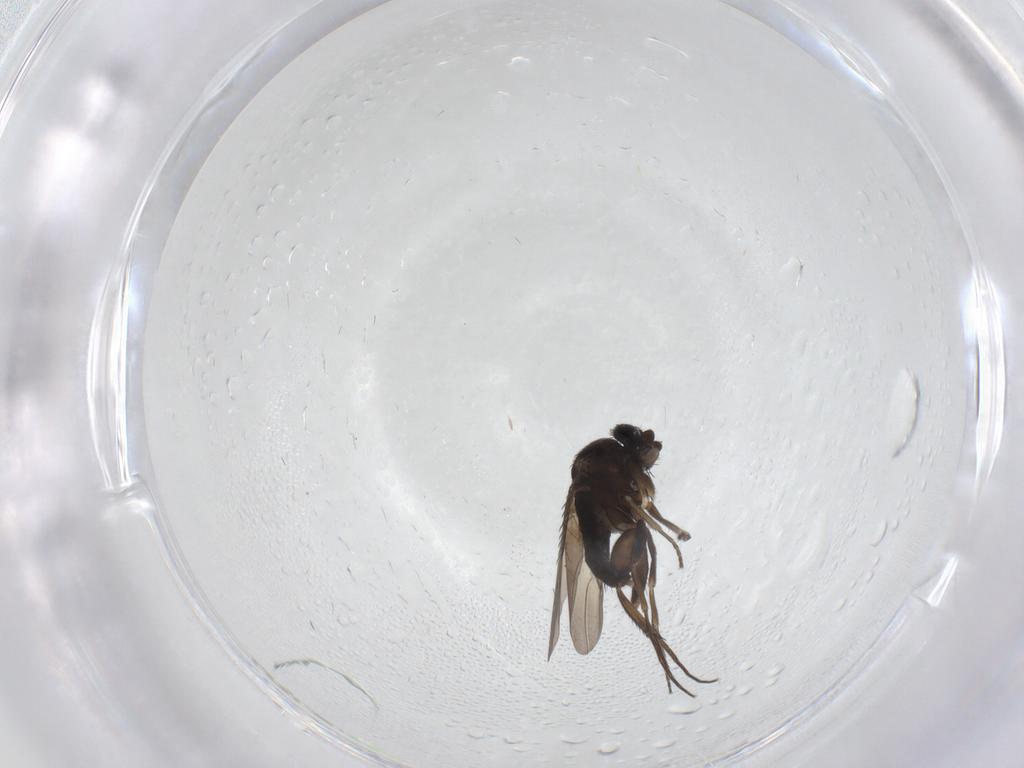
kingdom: Animalia
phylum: Arthropoda
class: Insecta
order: Diptera
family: Phoridae
